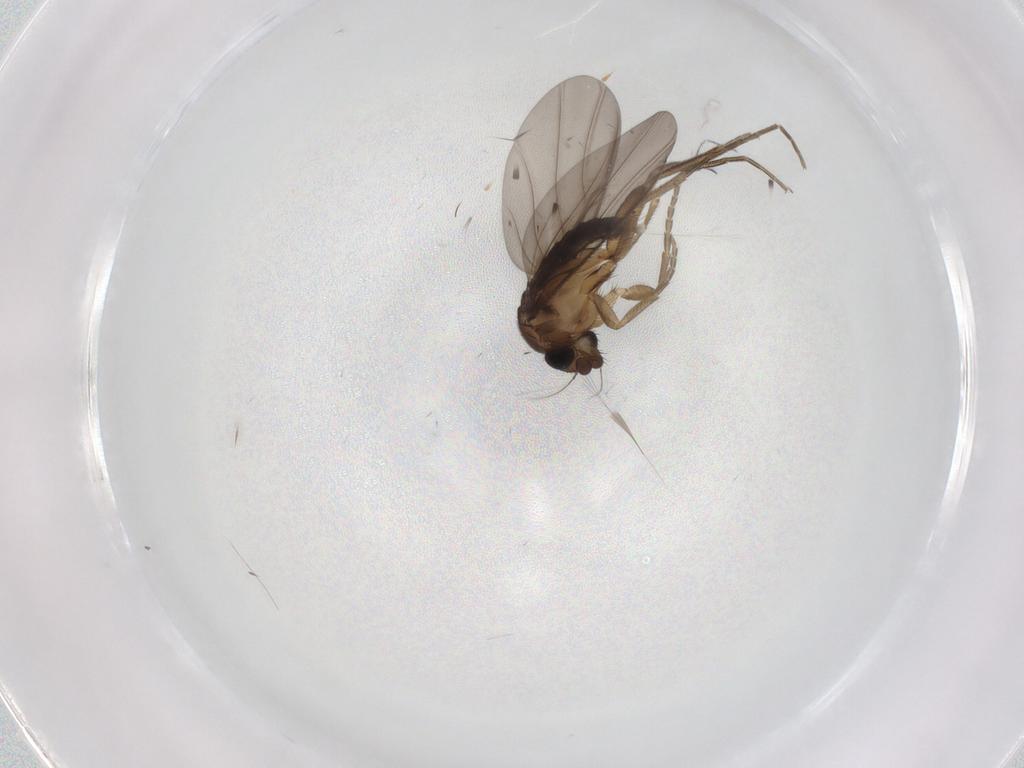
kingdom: Animalia
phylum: Arthropoda
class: Insecta
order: Diptera
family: Phoridae
